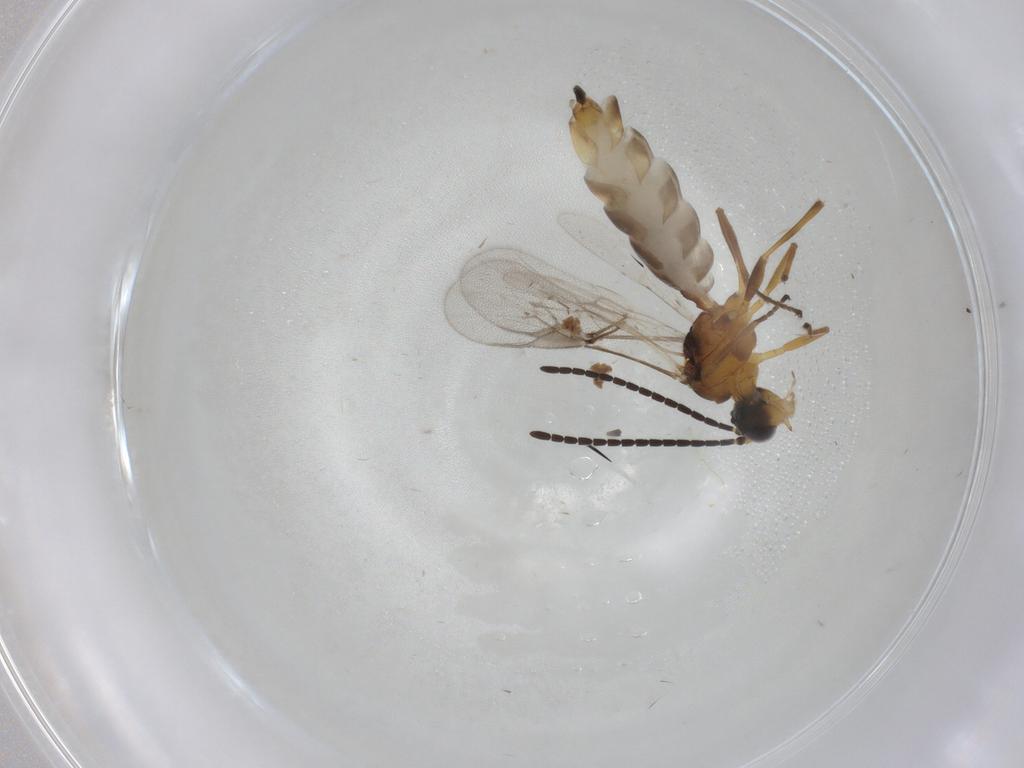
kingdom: Animalia
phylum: Arthropoda
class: Insecta
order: Hymenoptera
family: Braconidae
